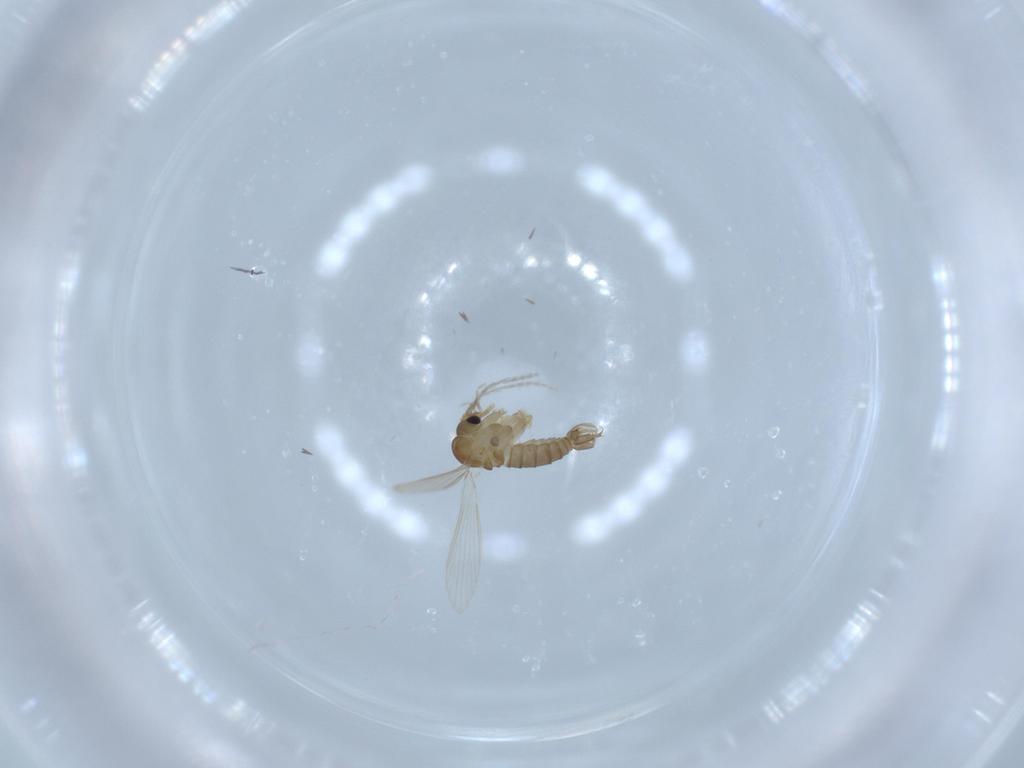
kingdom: Animalia
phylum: Arthropoda
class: Insecta
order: Diptera
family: Psychodidae
